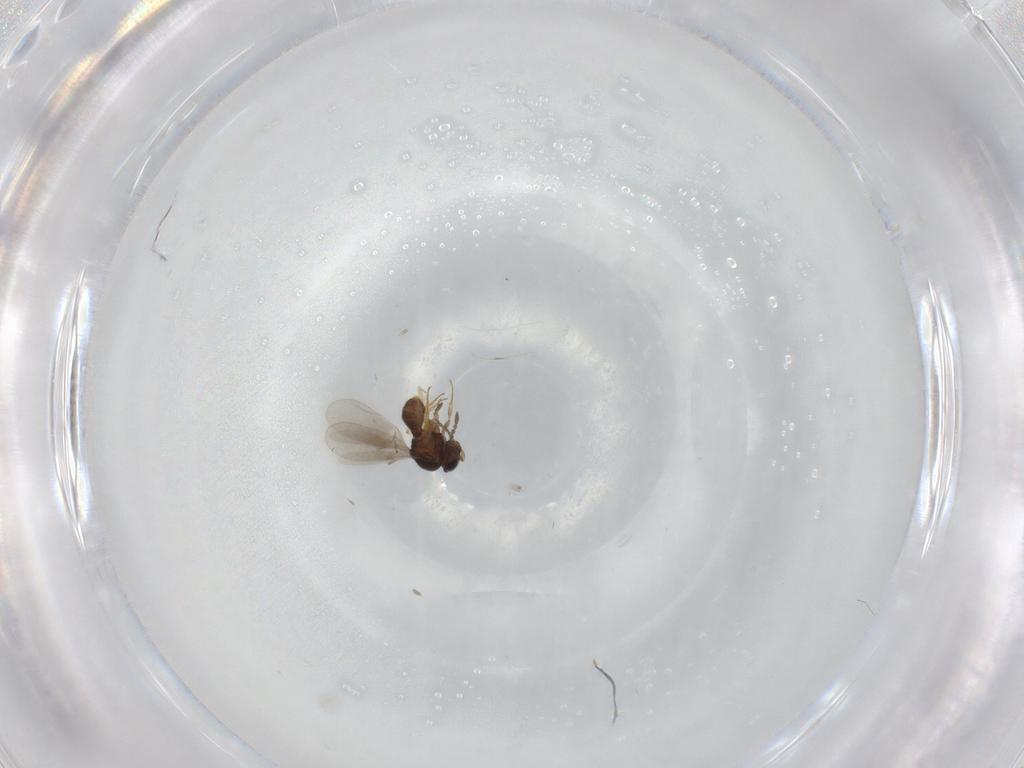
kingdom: Animalia
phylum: Arthropoda
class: Insecta
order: Hymenoptera
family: Scelionidae
